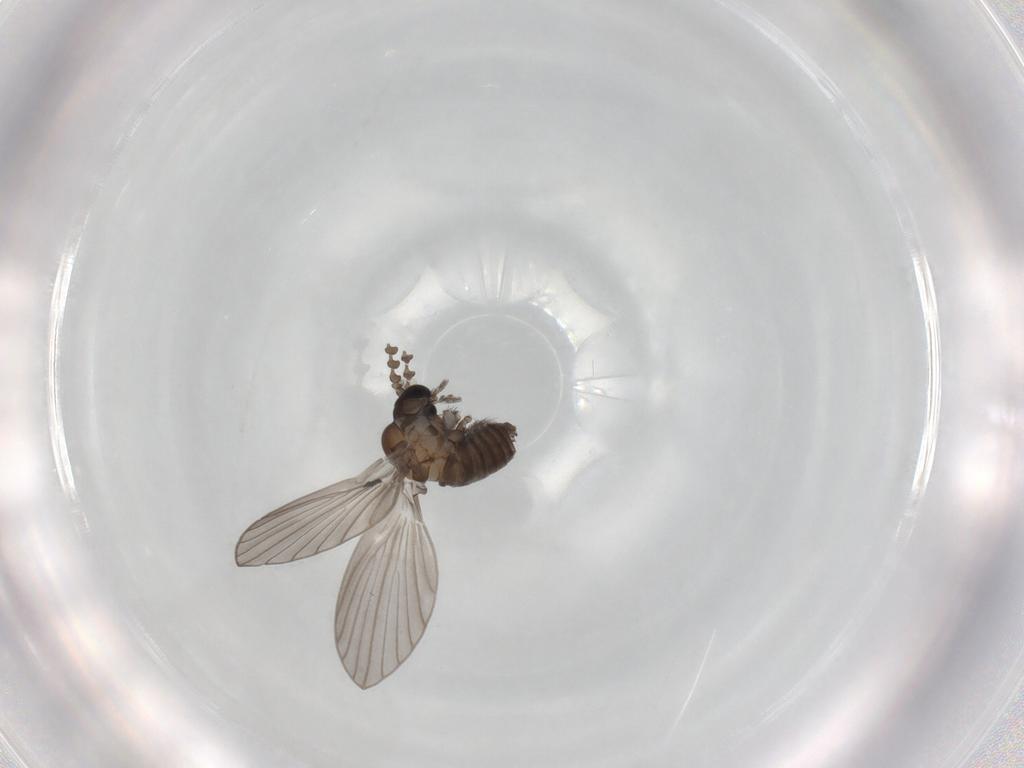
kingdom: Animalia
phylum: Arthropoda
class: Insecta
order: Diptera
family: Psychodidae
